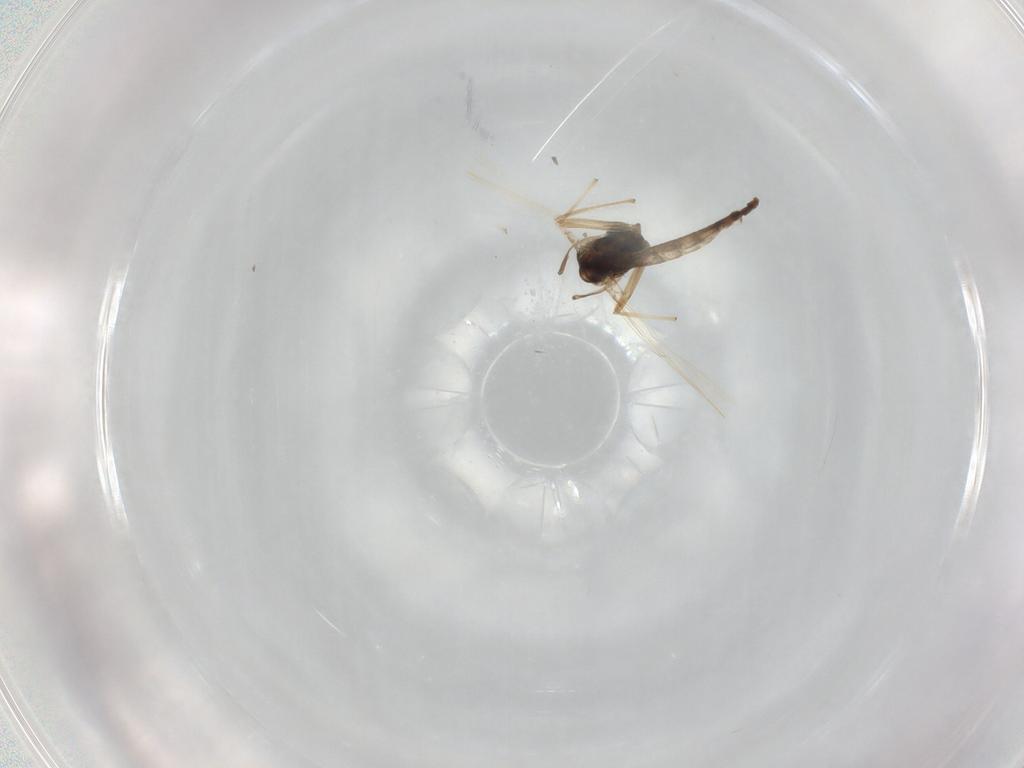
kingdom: Animalia
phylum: Arthropoda
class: Insecta
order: Diptera
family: Chironomidae
